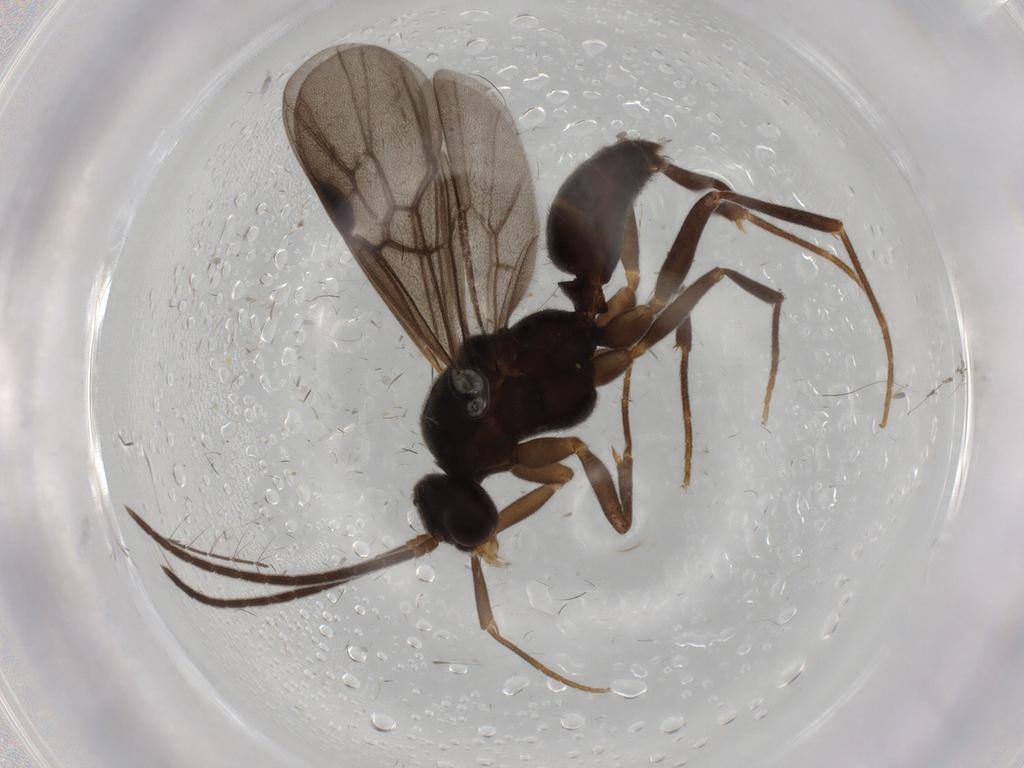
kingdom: Animalia
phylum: Arthropoda
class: Insecta
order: Hymenoptera
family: Formicidae
